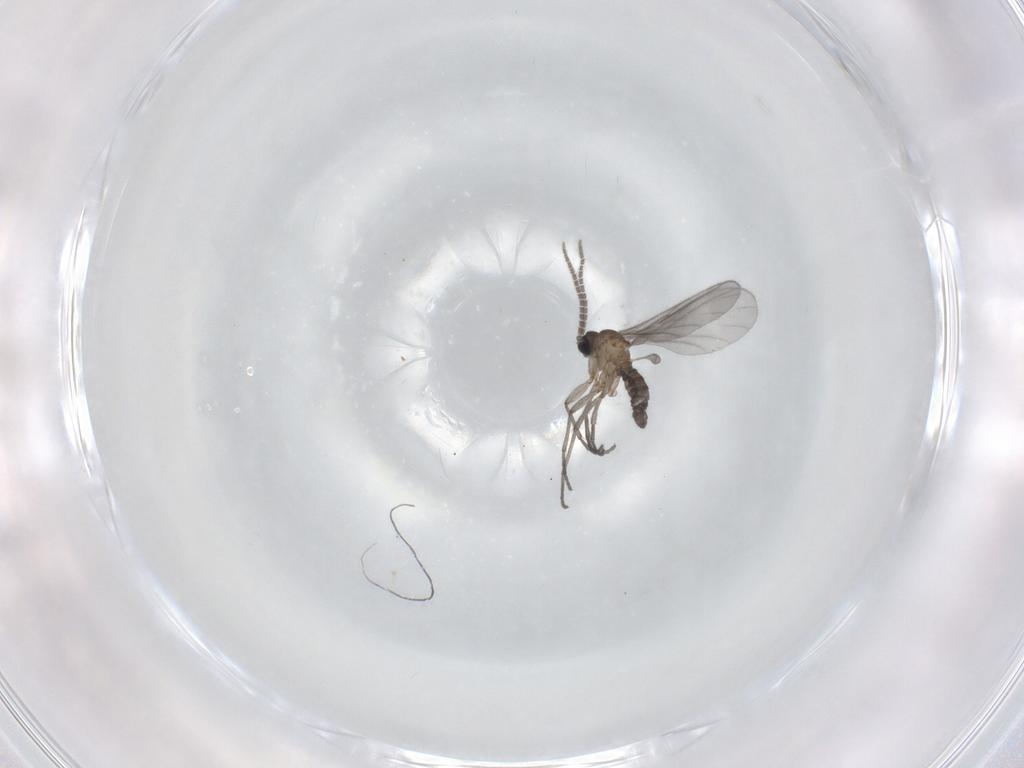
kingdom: Animalia
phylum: Arthropoda
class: Insecta
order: Diptera
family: Sciaridae
